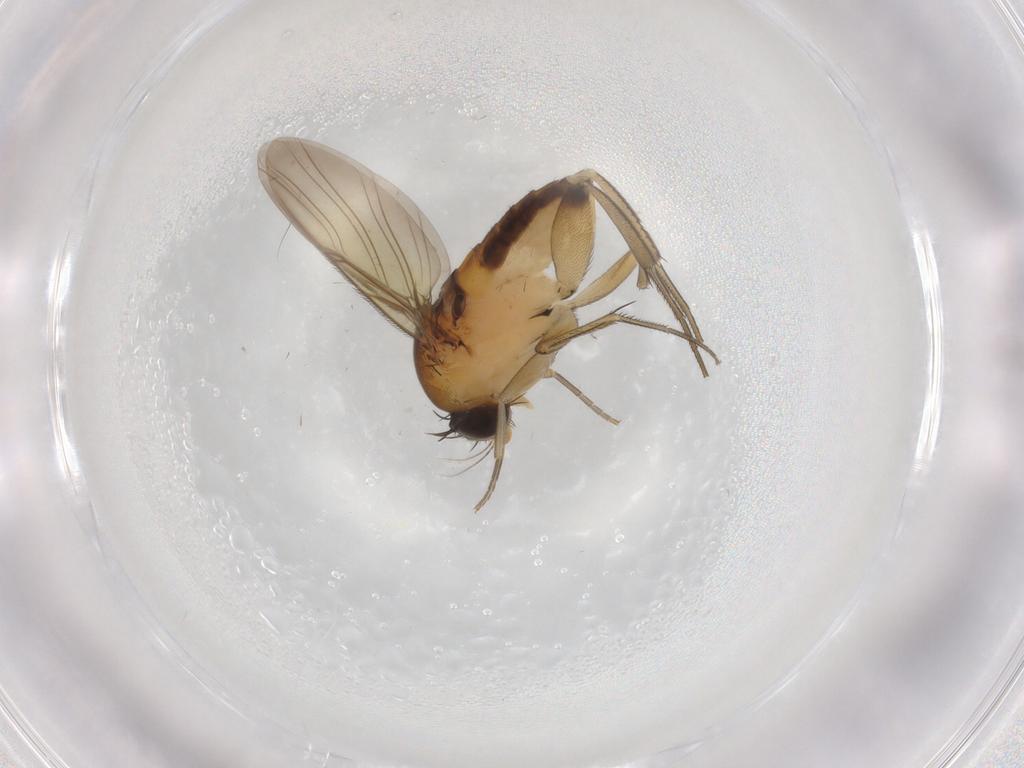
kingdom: Animalia
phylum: Arthropoda
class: Insecta
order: Diptera
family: Phoridae
